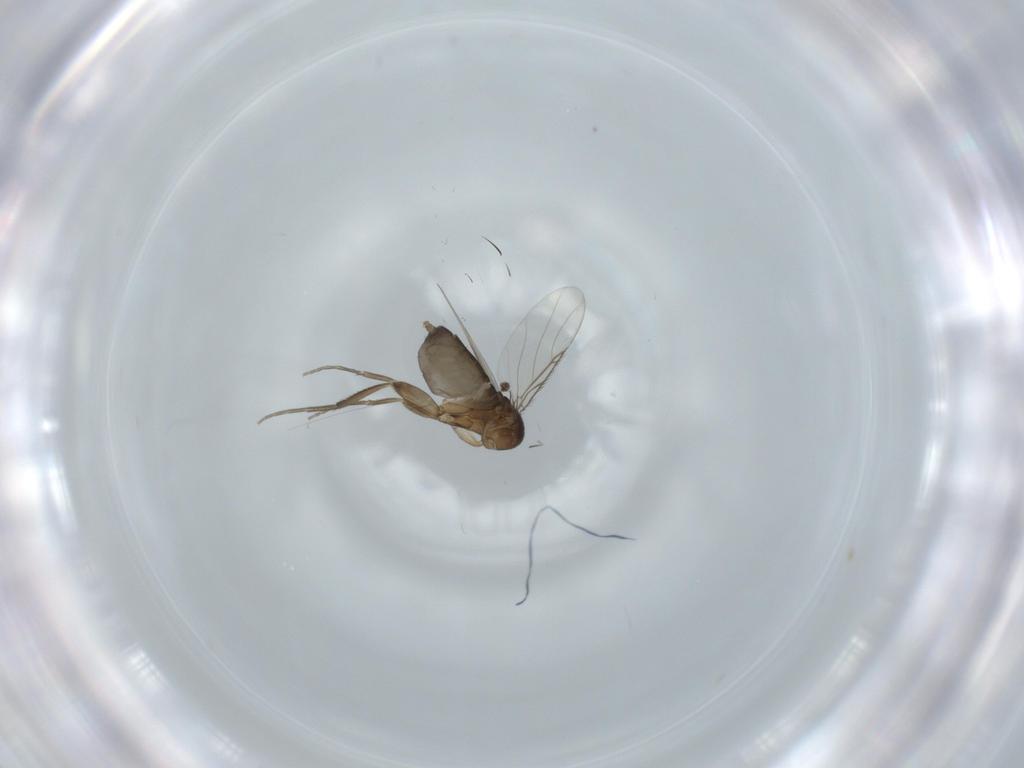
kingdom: Animalia
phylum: Arthropoda
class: Insecta
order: Diptera
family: Phoridae
